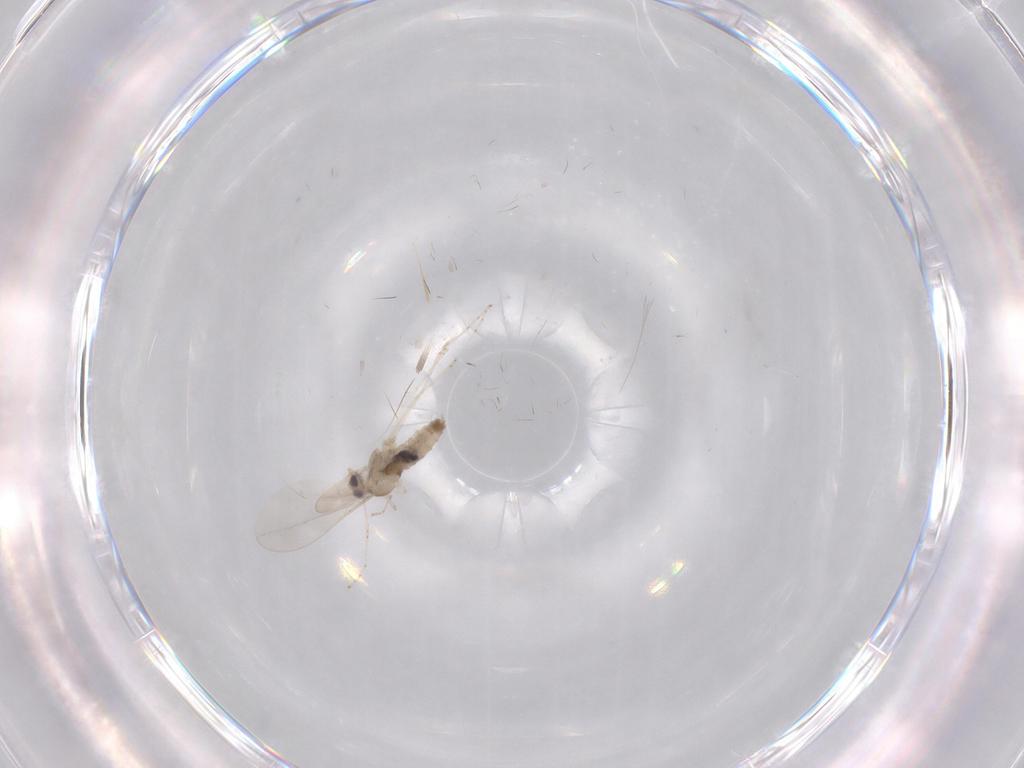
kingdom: Animalia
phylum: Arthropoda
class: Insecta
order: Diptera
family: Cecidomyiidae
